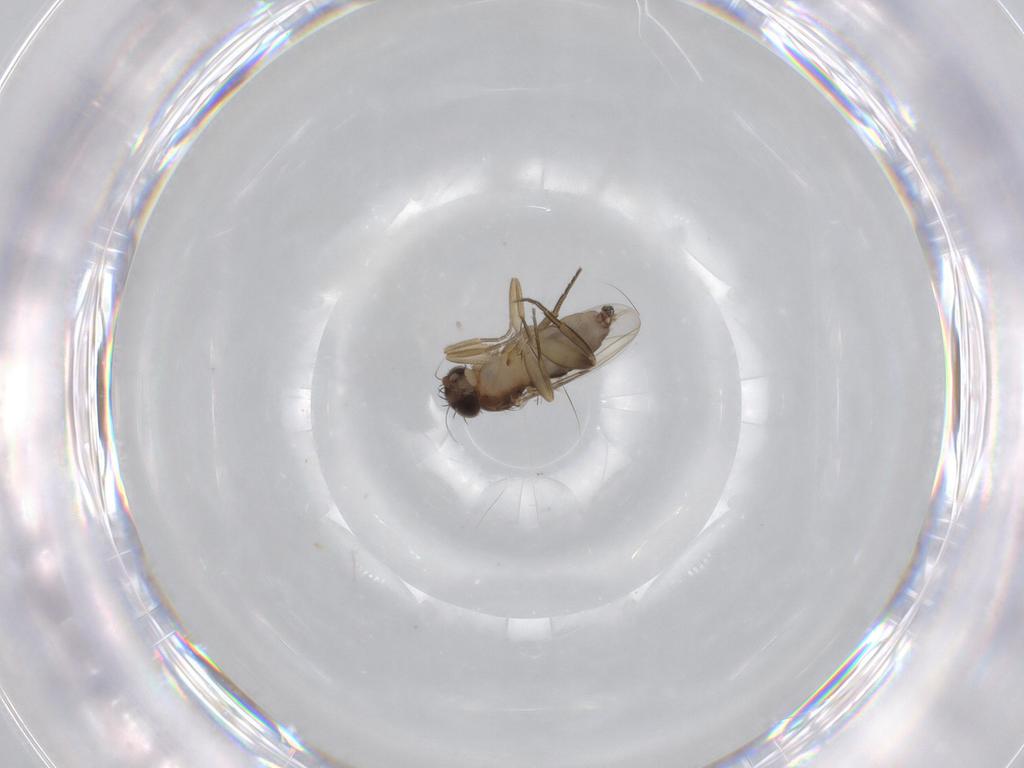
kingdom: Animalia
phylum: Arthropoda
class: Insecta
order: Diptera
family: Phoridae
